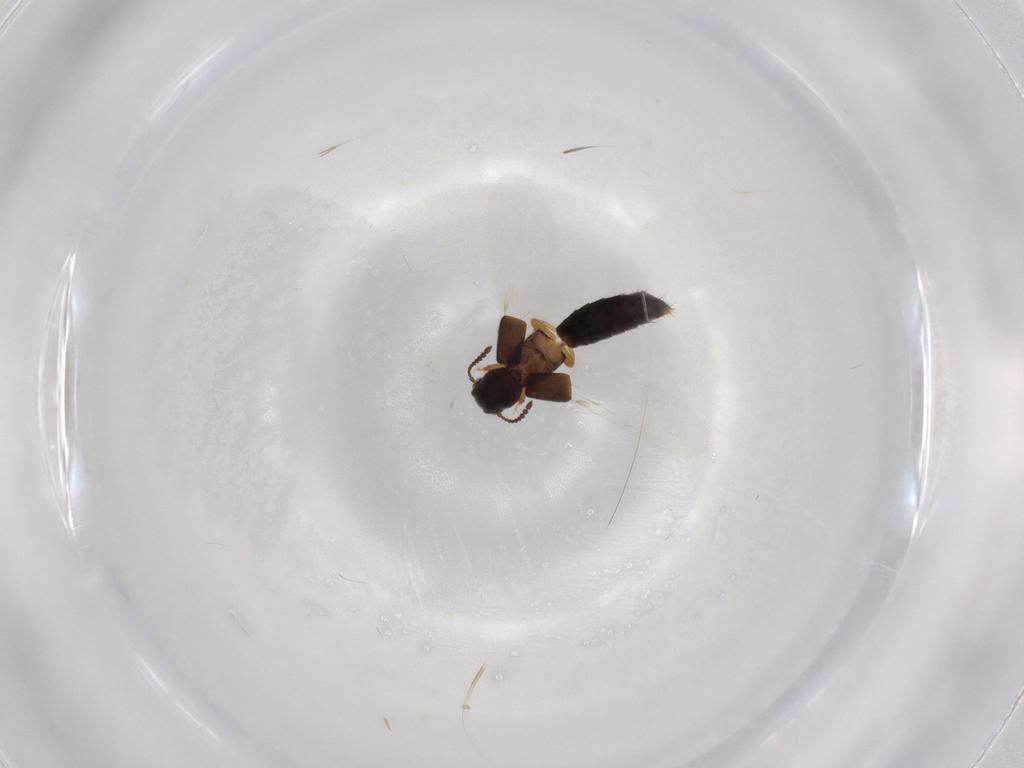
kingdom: Animalia
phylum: Arthropoda
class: Insecta
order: Coleoptera
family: Staphylinidae
